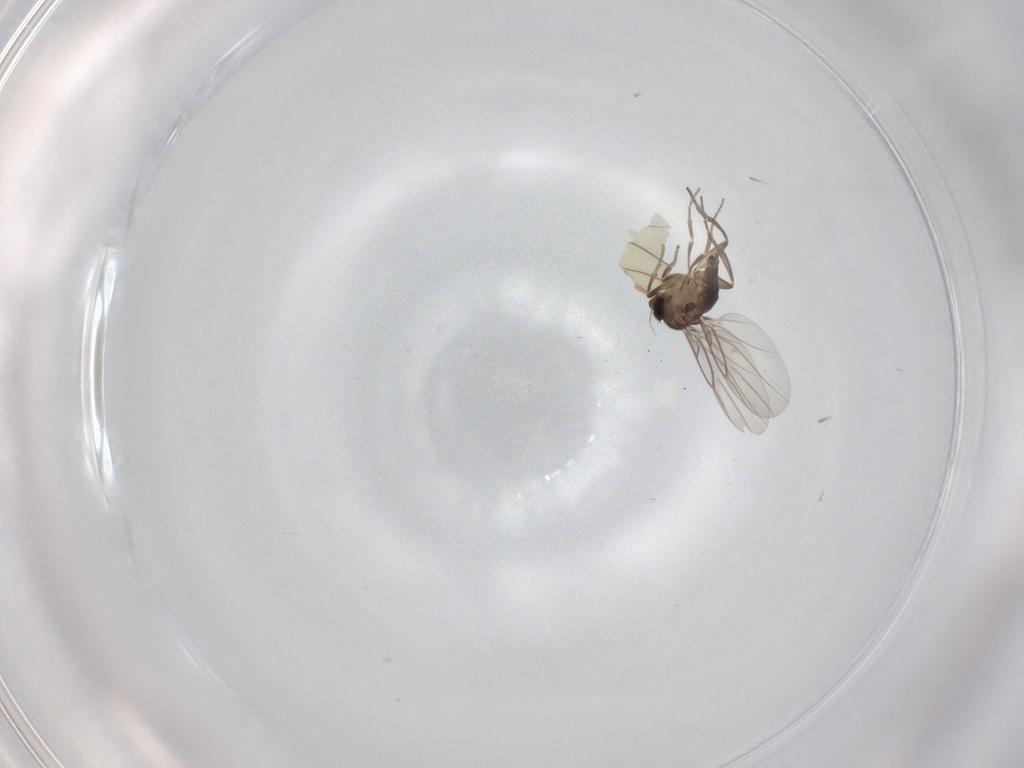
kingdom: Animalia
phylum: Arthropoda
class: Insecta
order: Diptera
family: Phoridae
